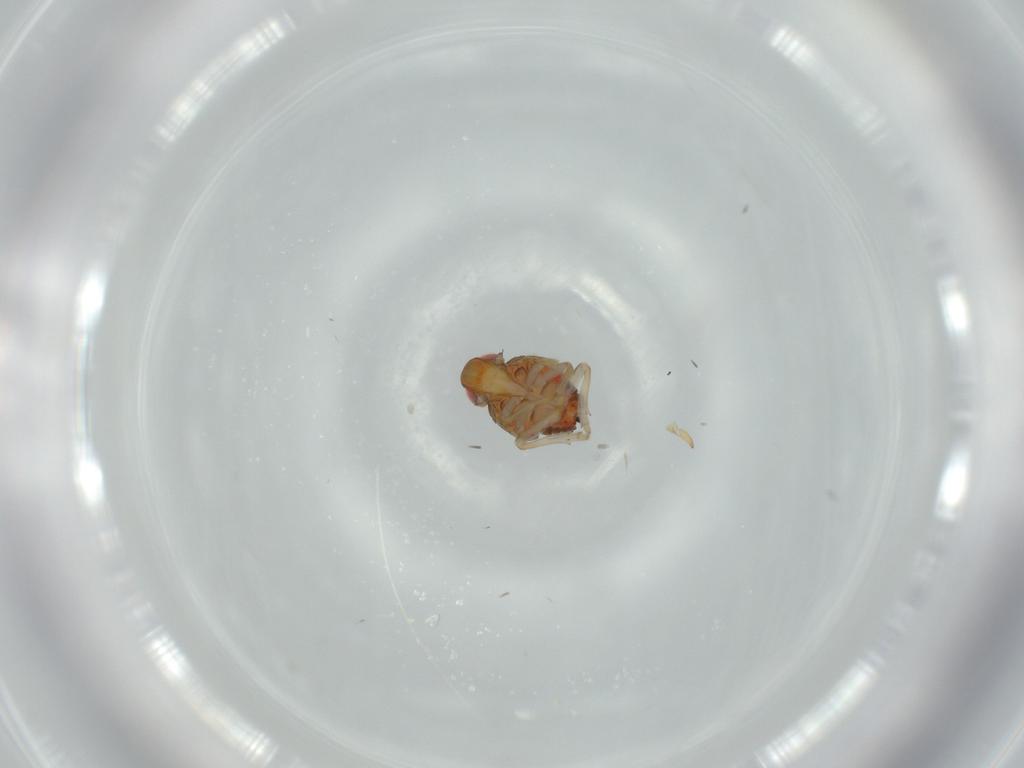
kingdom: Animalia
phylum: Arthropoda
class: Insecta
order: Hemiptera
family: Issidae
